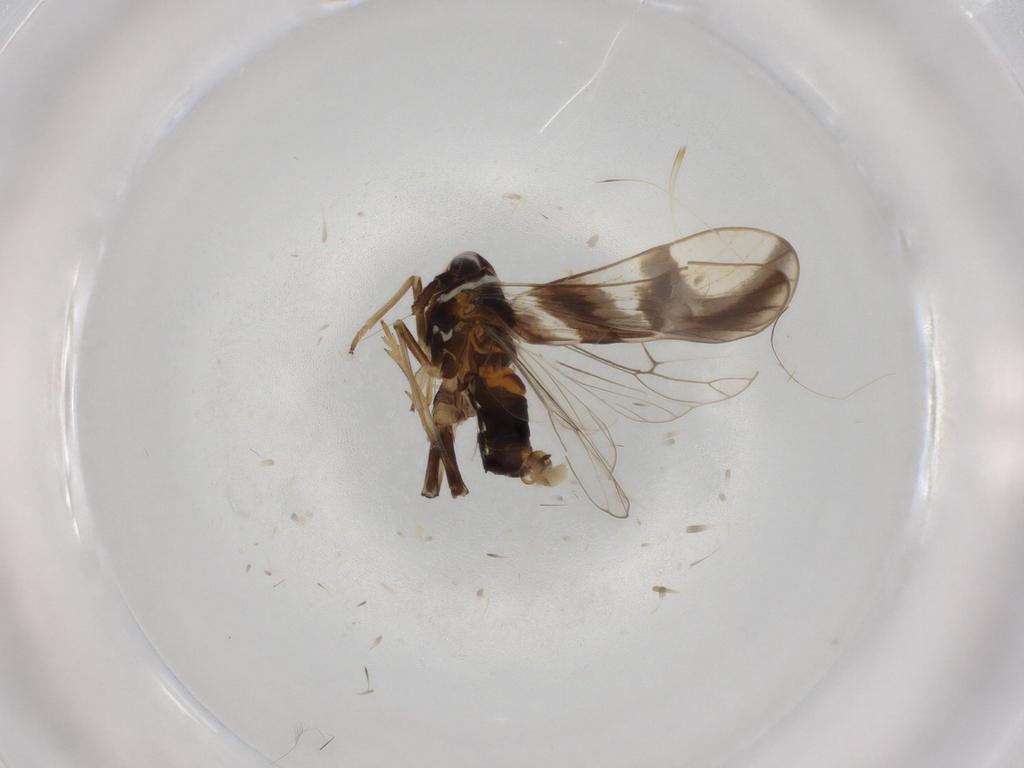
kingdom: Animalia
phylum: Arthropoda
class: Insecta
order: Hemiptera
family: Delphacidae
